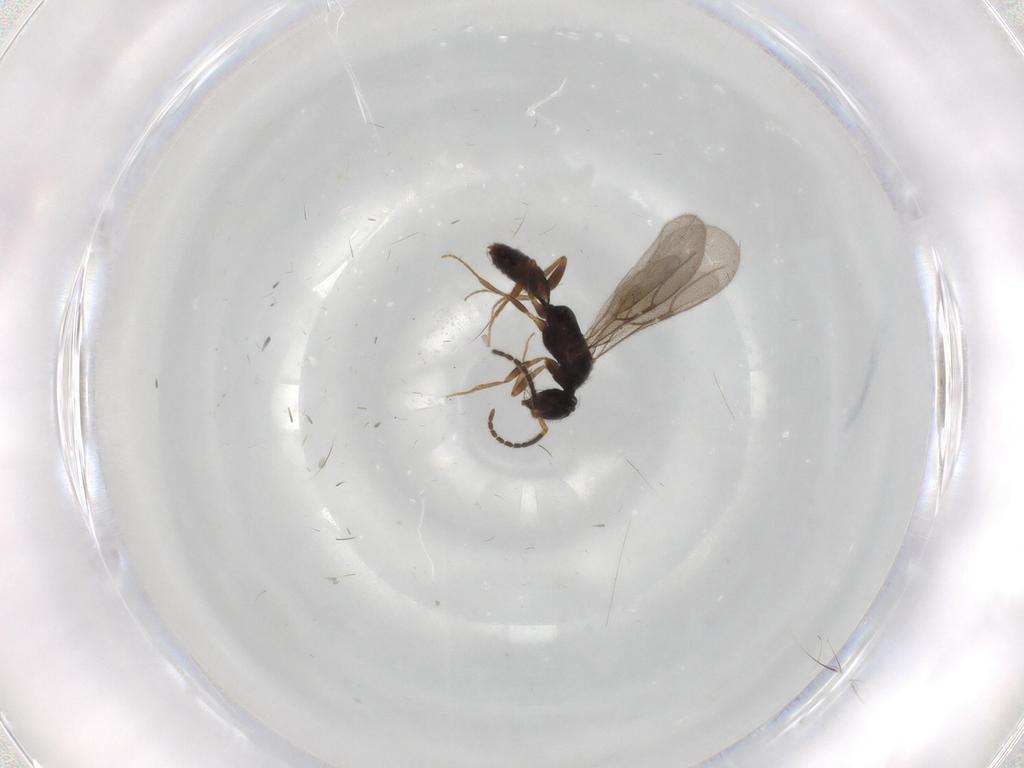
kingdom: Animalia
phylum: Arthropoda
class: Insecta
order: Hymenoptera
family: Bethylidae
